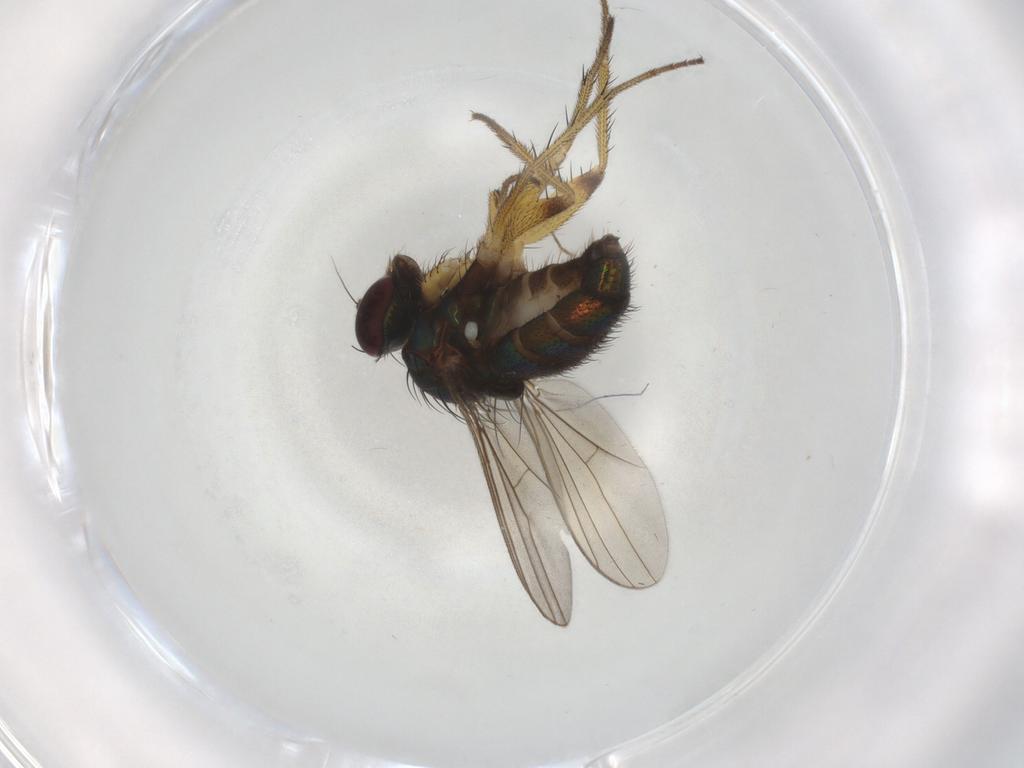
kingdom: Animalia
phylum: Arthropoda
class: Insecta
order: Diptera
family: Dolichopodidae
